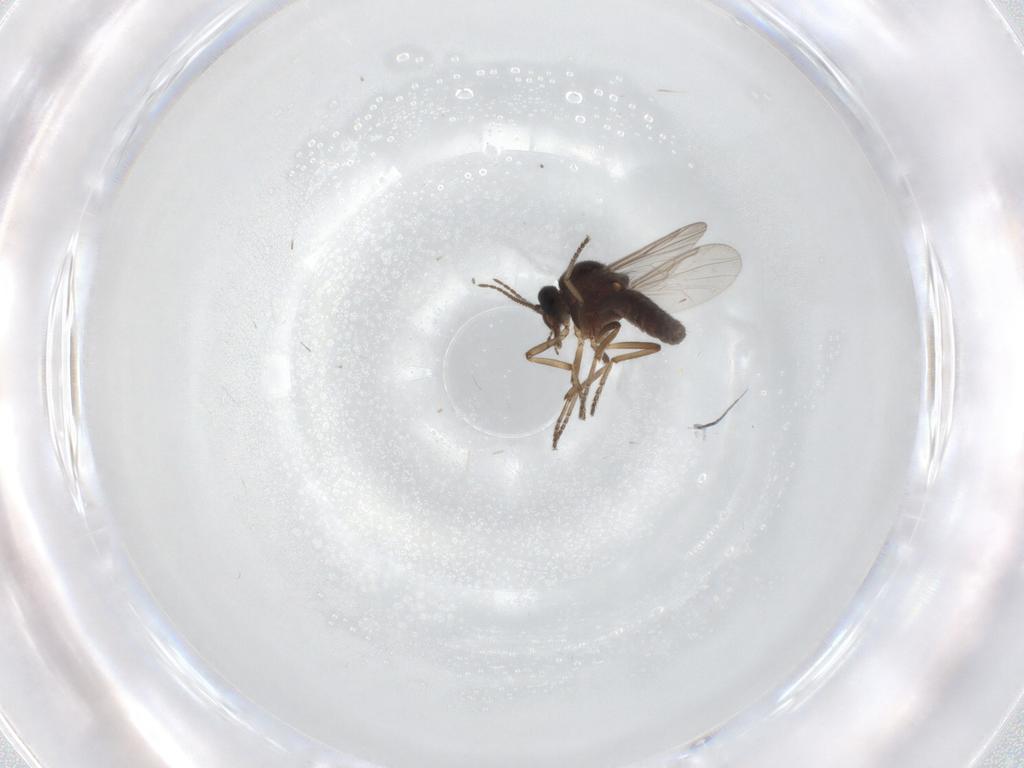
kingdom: Animalia
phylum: Arthropoda
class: Insecta
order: Diptera
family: Ceratopogonidae
